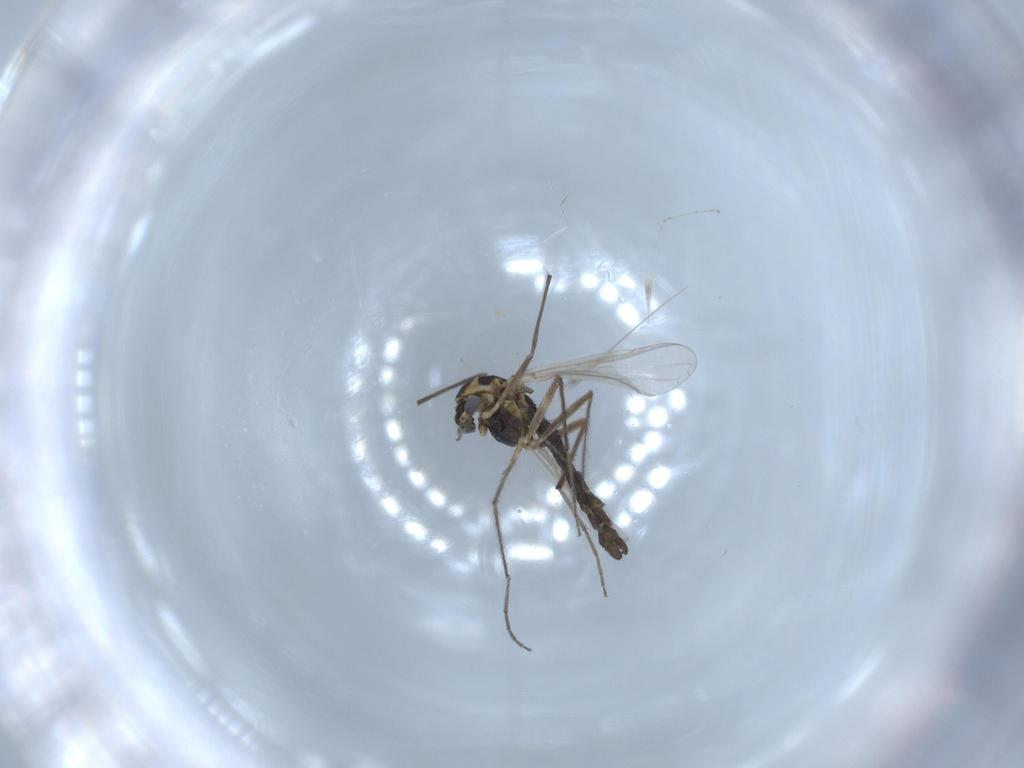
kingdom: Animalia
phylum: Arthropoda
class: Insecta
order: Diptera
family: Chironomidae
